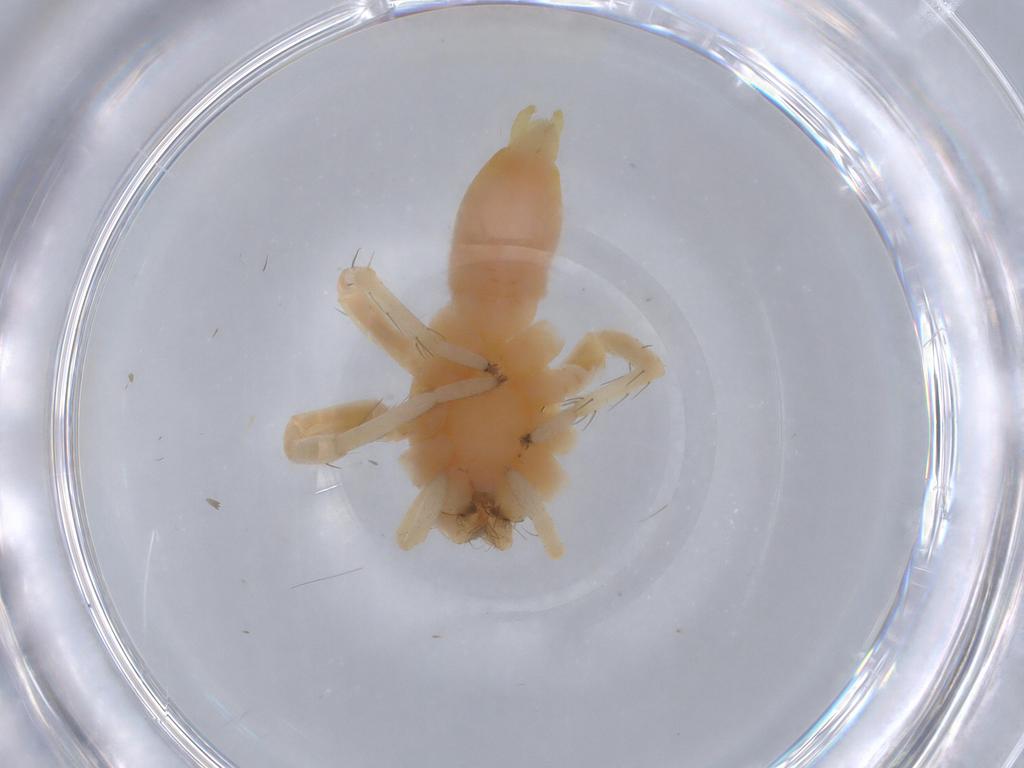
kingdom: Animalia
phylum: Arthropoda
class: Arachnida
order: Araneae
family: Anyphaenidae
